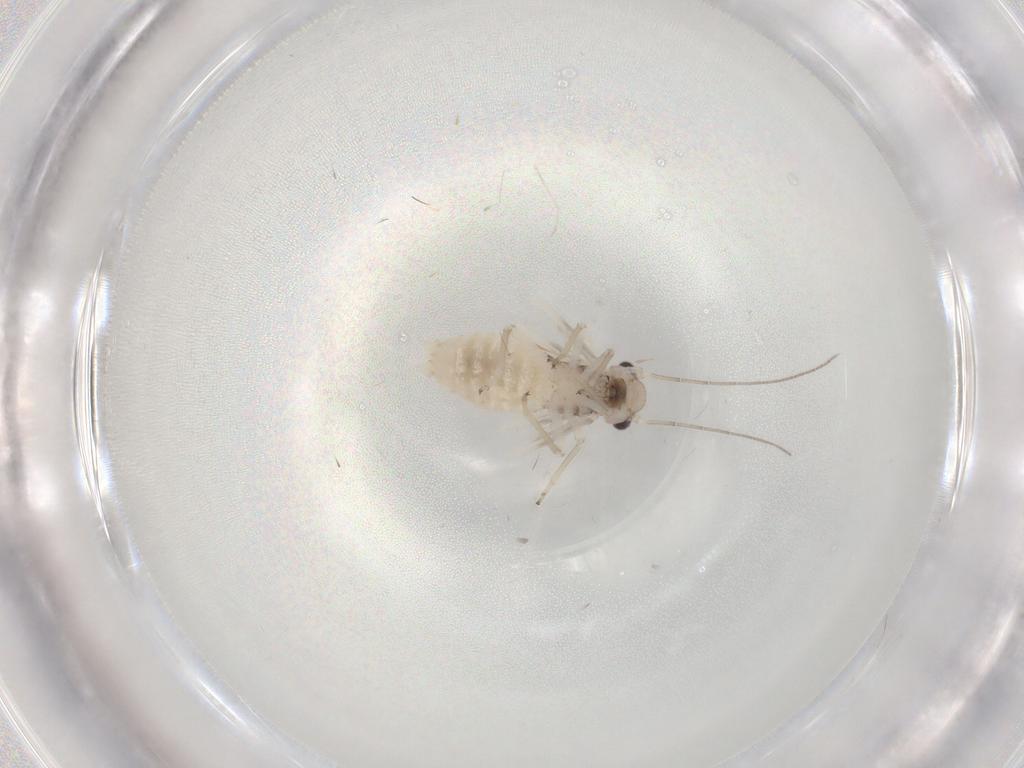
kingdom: Animalia
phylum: Arthropoda
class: Insecta
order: Psocodea
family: Psocidae
